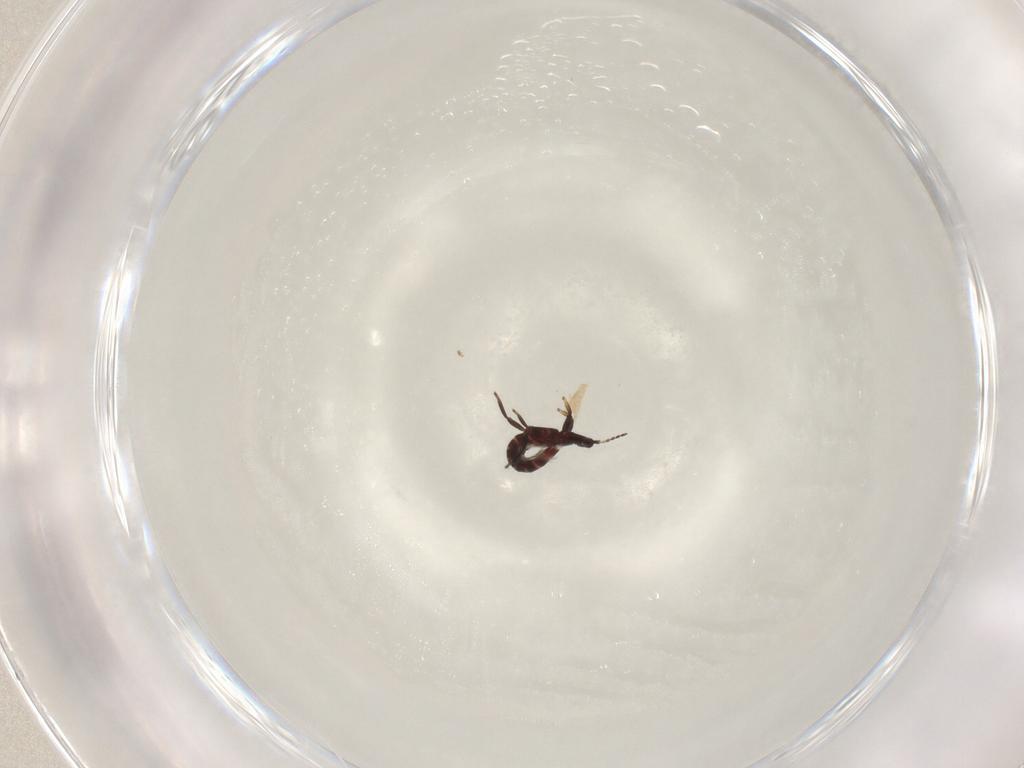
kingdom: Animalia
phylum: Arthropoda
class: Insecta
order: Thysanoptera
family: Phlaeothripidae
